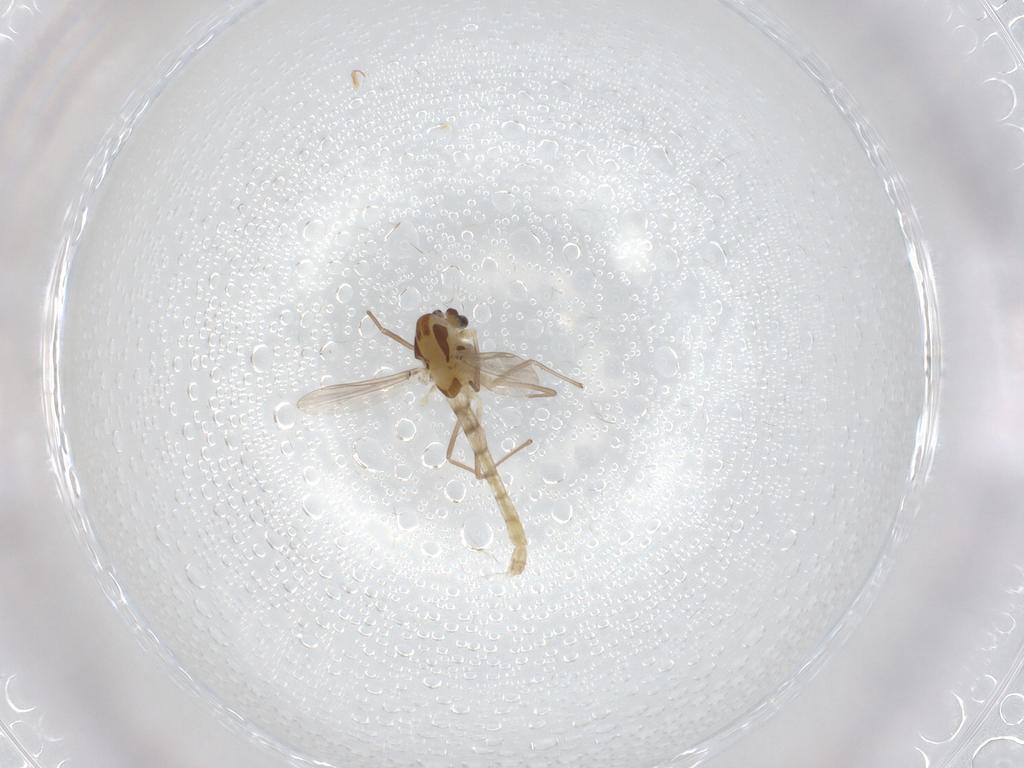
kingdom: Animalia
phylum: Arthropoda
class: Insecta
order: Diptera
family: Chironomidae
